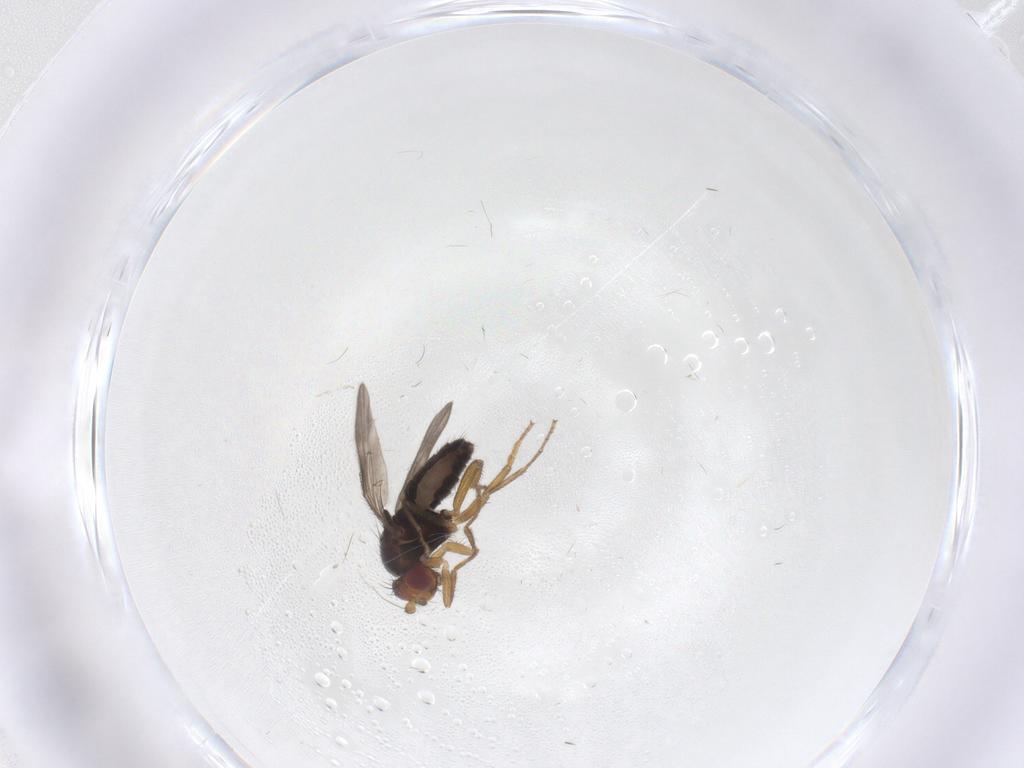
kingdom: Animalia
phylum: Arthropoda
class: Insecta
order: Diptera
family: Sphaeroceridae
